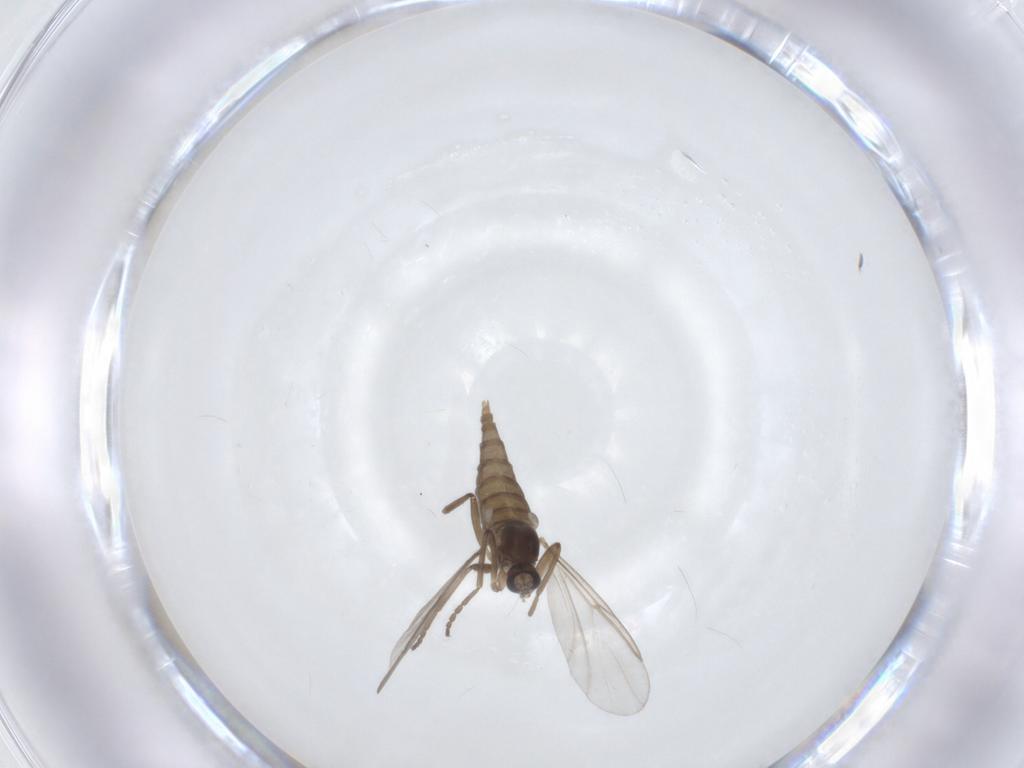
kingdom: Animalia
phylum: Arthropoda
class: Insecta
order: Diptera
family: Cecidomyiidae
